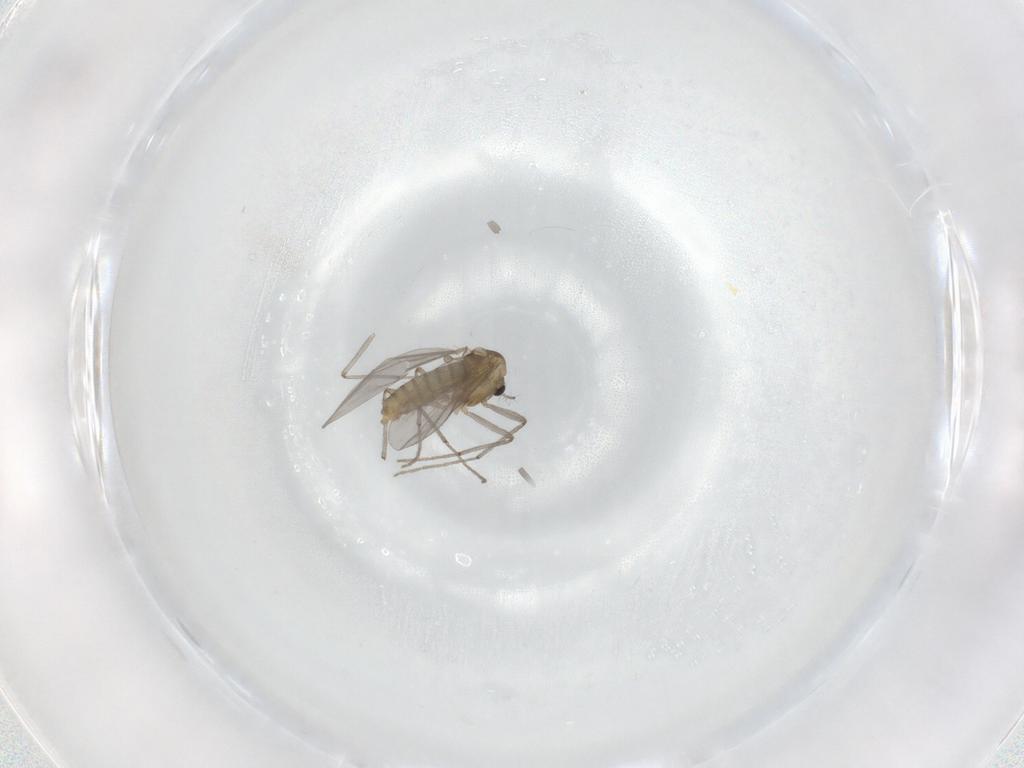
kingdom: Animalia
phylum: Arthropoda
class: Insecta
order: Diptera
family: Chironomidae
